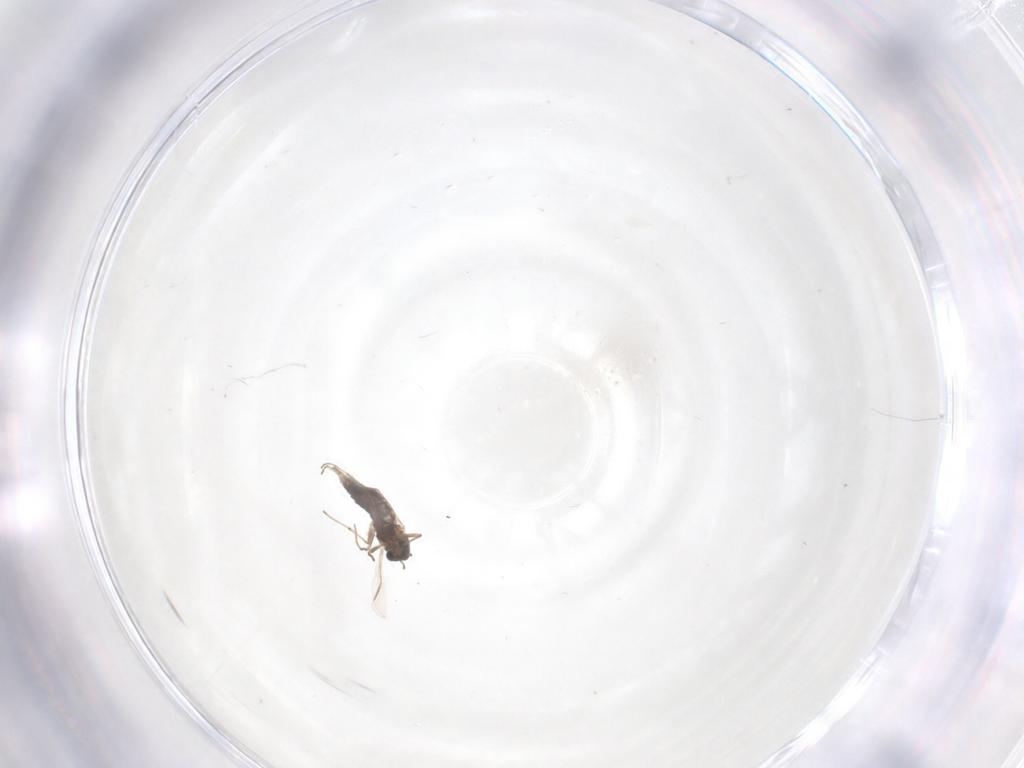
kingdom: Animalia
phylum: Arthropoda
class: Insecta
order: Diptera
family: Chironomidae
